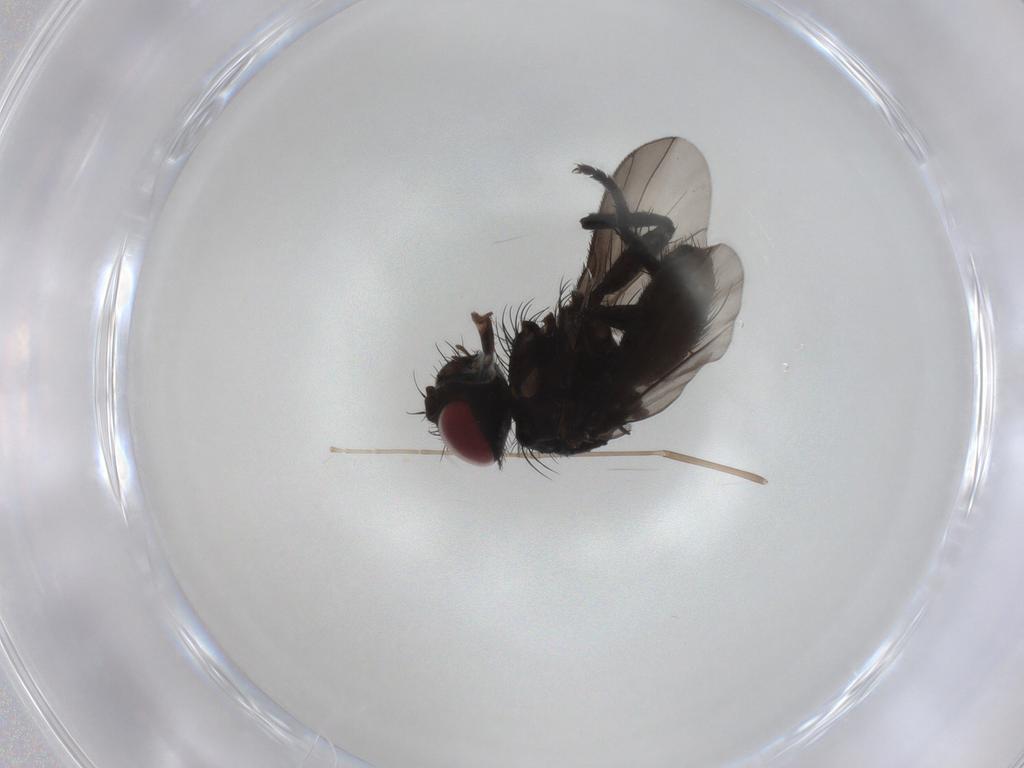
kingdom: Animalia
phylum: Arthropoda
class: Insecta
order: Diptera
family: Tachinidae
